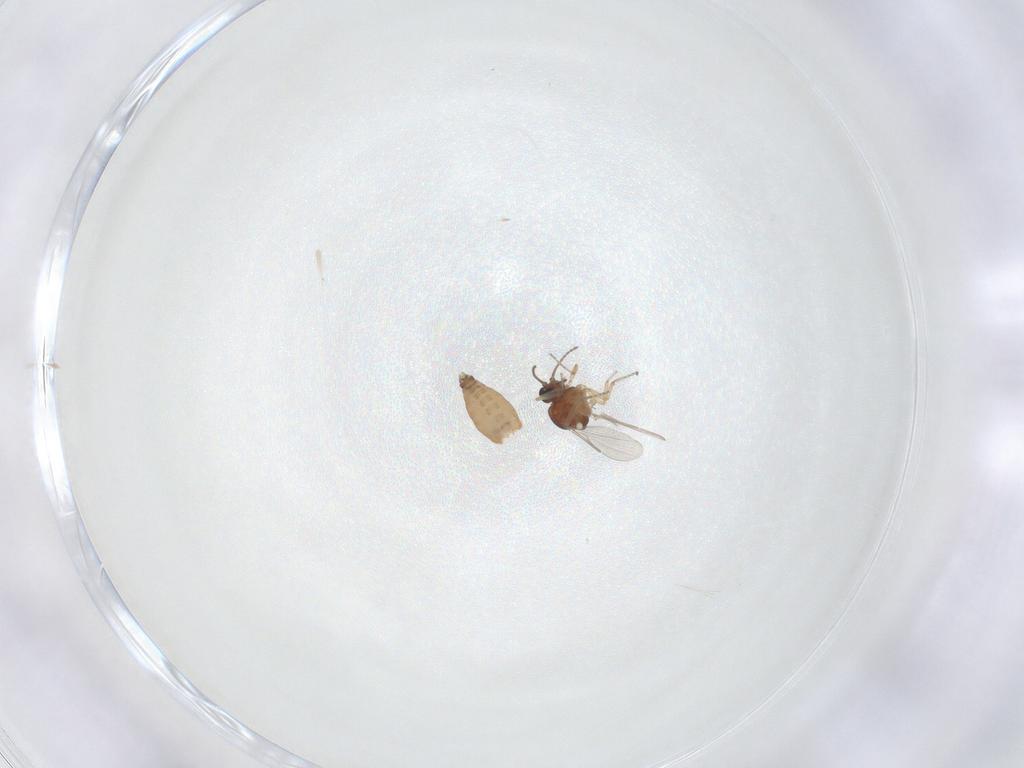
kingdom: Animalia
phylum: Arthropoda
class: Insecta
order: Diptera
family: Ceratopogonidae
